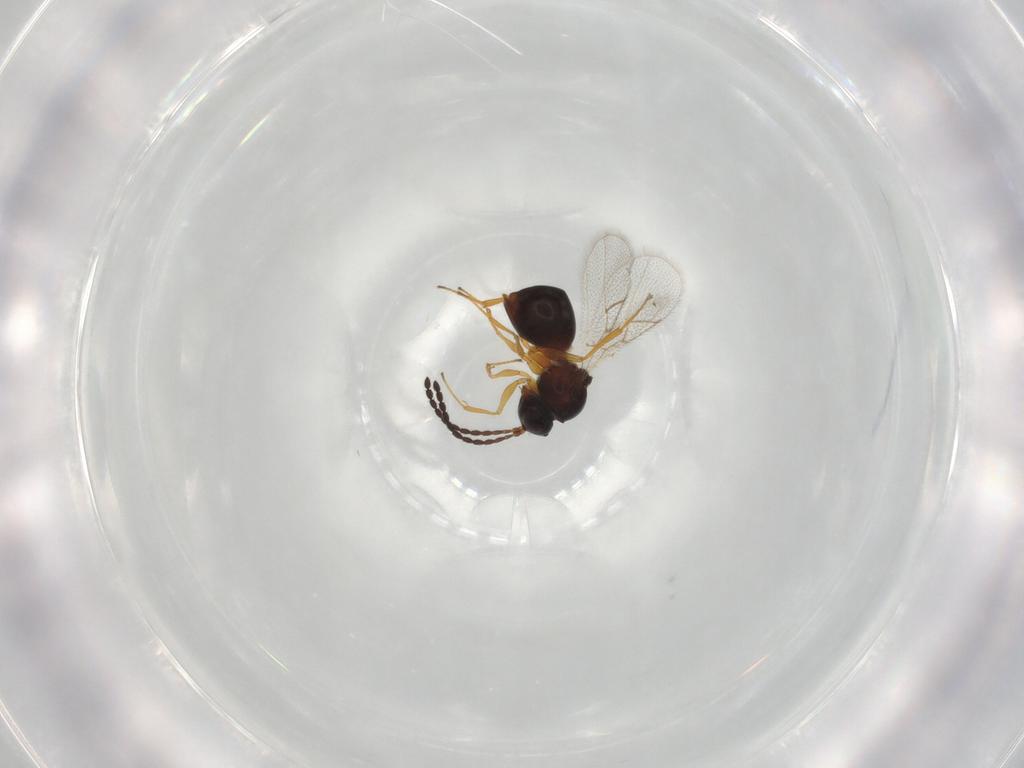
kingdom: Animalia
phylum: Arthropoda
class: Insecta
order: Hymenoptera
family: Figitidae
